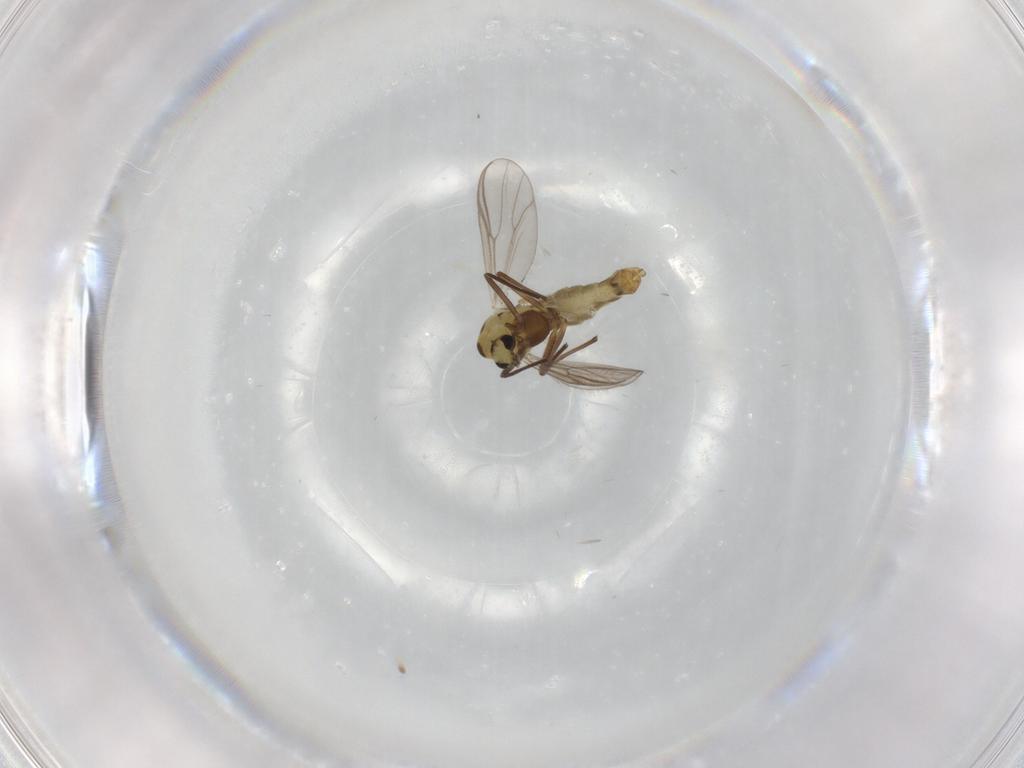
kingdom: Animalia
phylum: Arthropoda
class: Insecta
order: Diptera
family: Chironomidae
